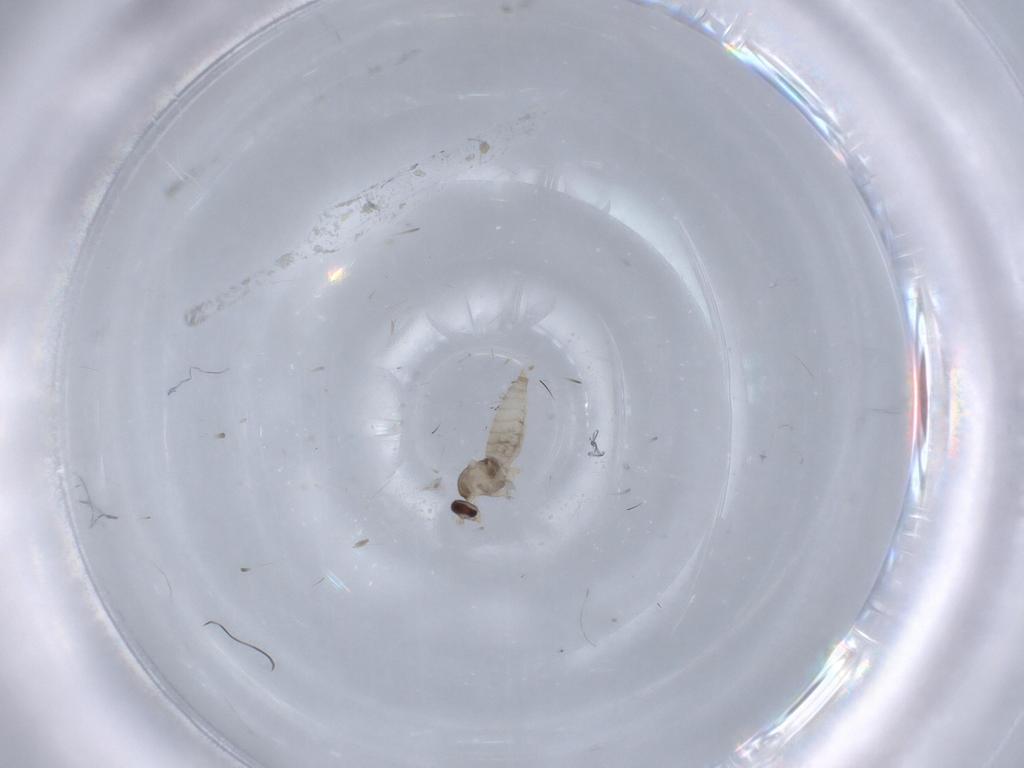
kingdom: Animalia
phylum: Arthropoda
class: Insecta
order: Diptera
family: Cecidomyiidae
